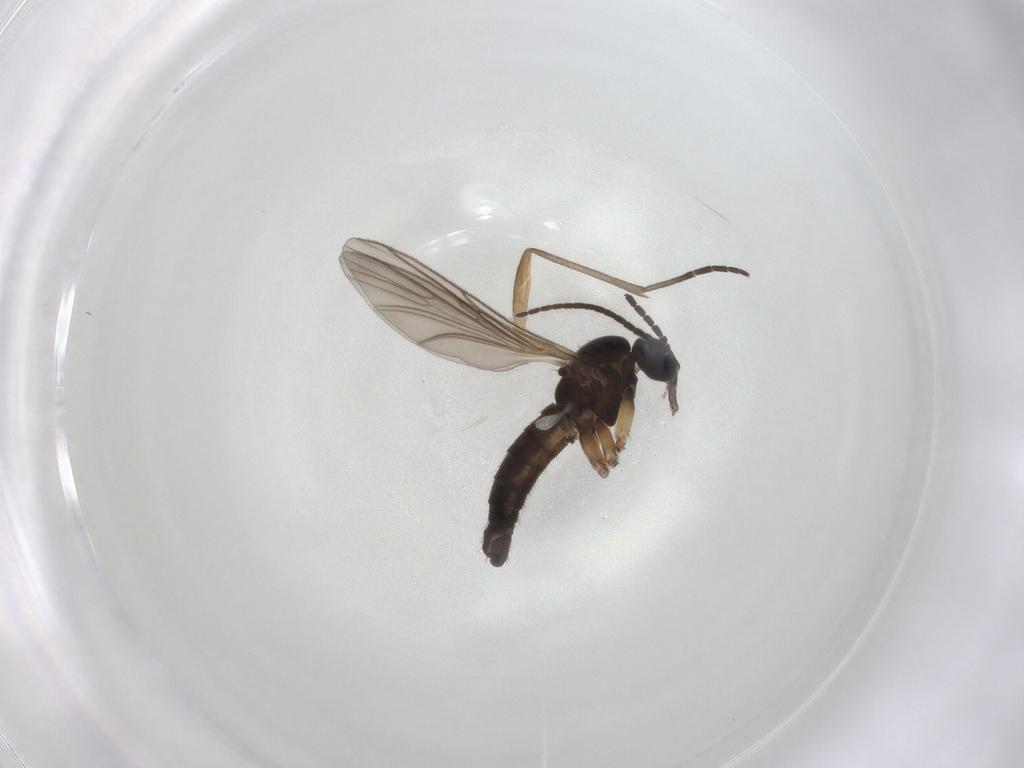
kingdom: Animalia
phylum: Arthropoda
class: Insecta
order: Diptera
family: Sciaridae
